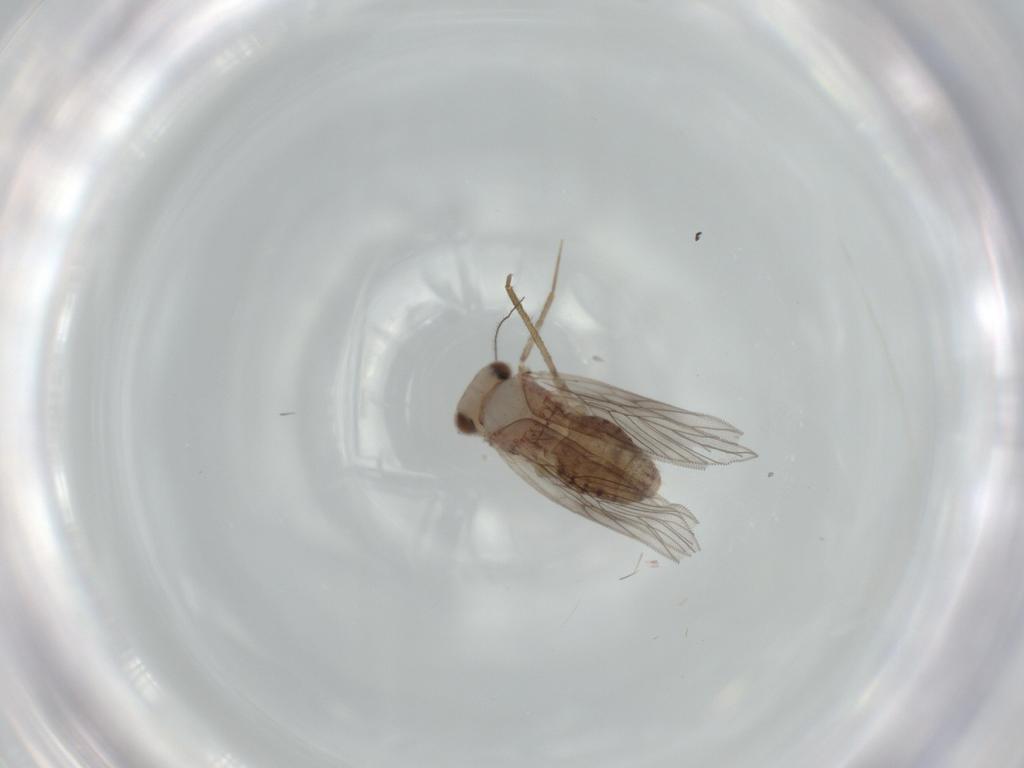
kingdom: Animalia
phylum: Arthropoda
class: Insecta
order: Psocodea
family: Lepidopsocidae
